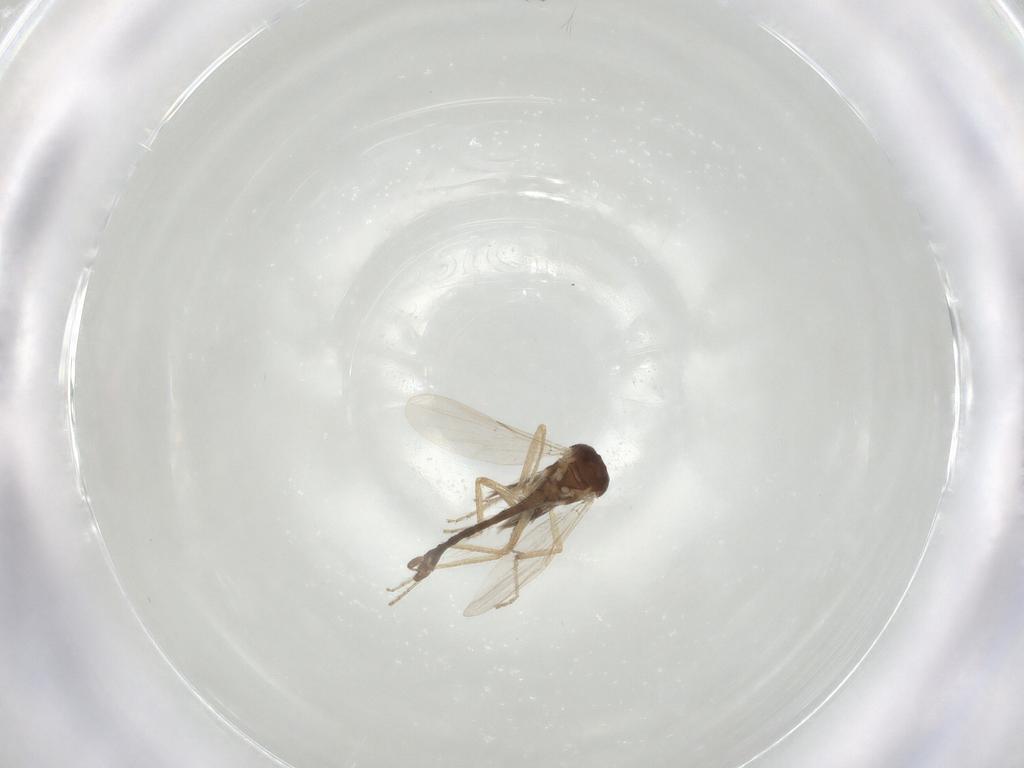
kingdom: Animalia
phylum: Arthropoda
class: Insecta
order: Diptera
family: Ceratopogonidae
